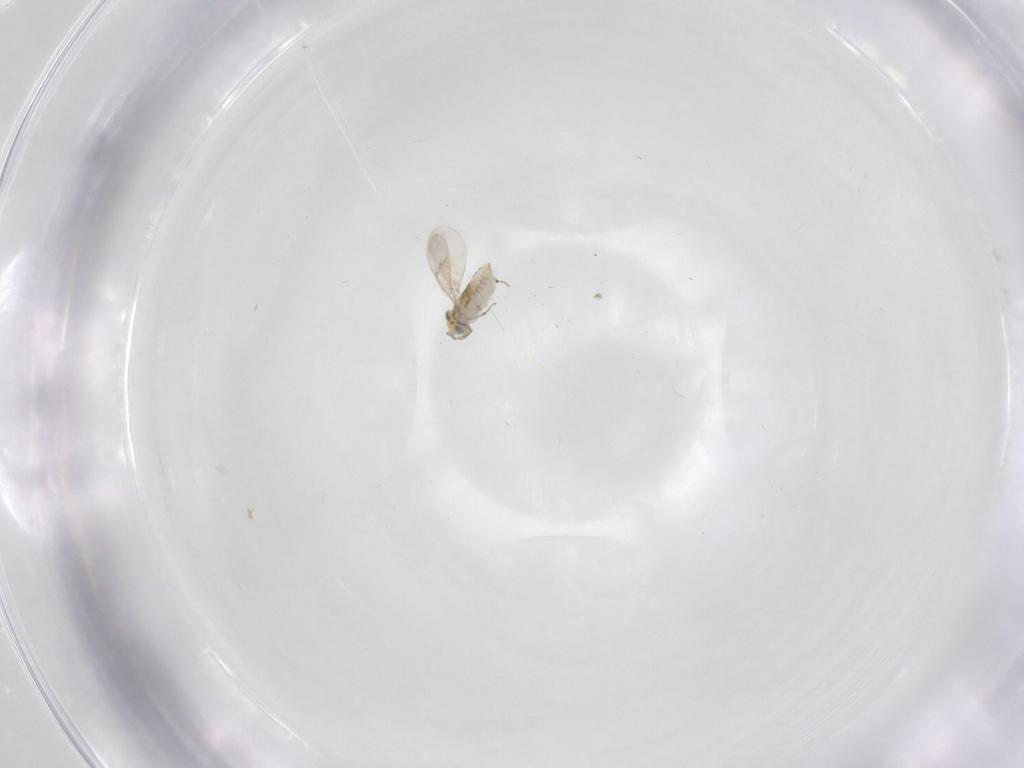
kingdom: Animalia
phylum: Arthropoda
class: Insecta
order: Hymenoptera
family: Aphelinidae
